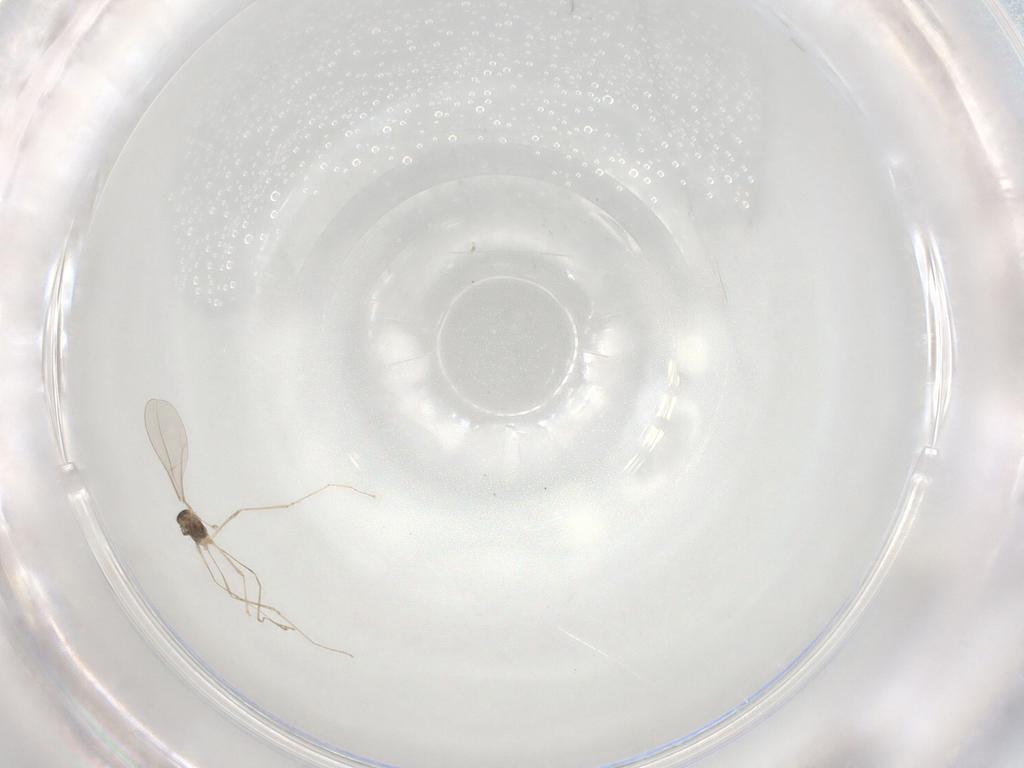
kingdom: Animalia
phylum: Arthropoda
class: Insecta
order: Diptera
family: Cecidomyiidae
